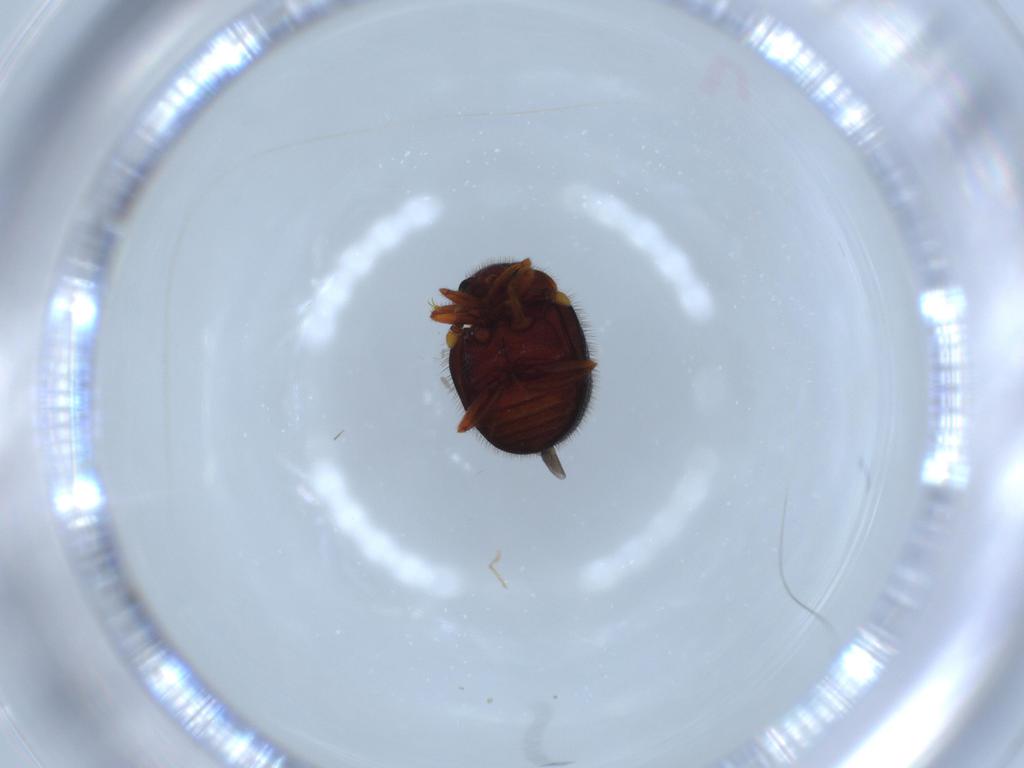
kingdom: Animalia
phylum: Arthropoda
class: Insecta
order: Coleoptera
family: Sphindidae
